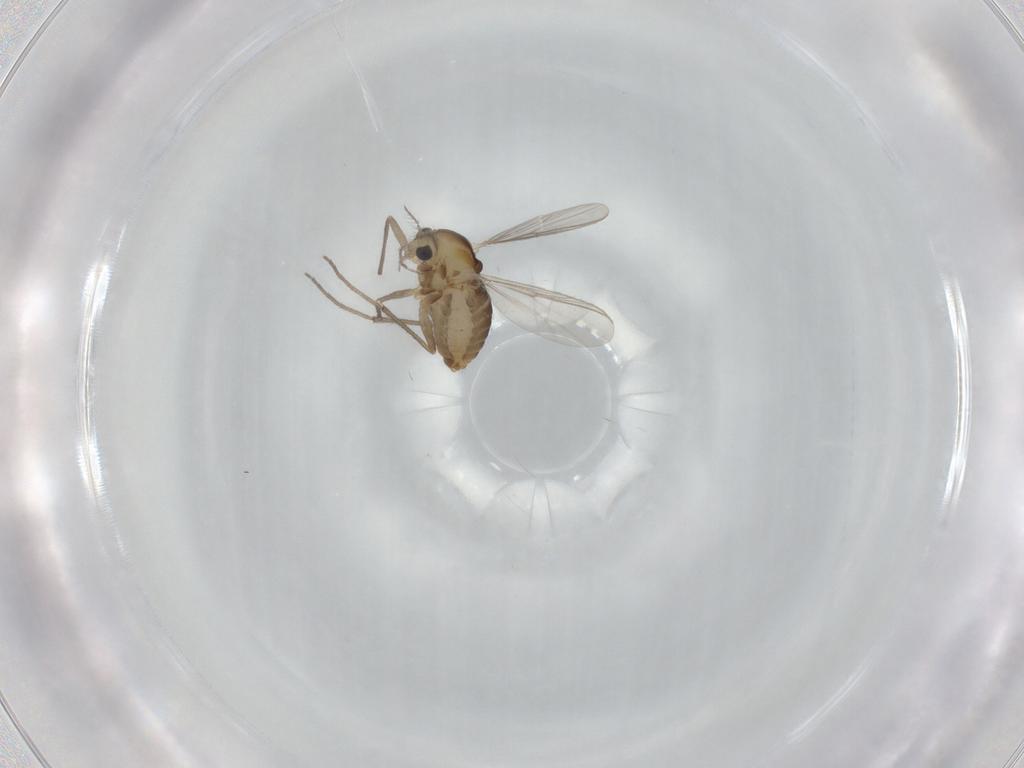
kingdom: Animalia
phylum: Arthropoda
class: Insecta
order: Diptera
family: Chironomidae
